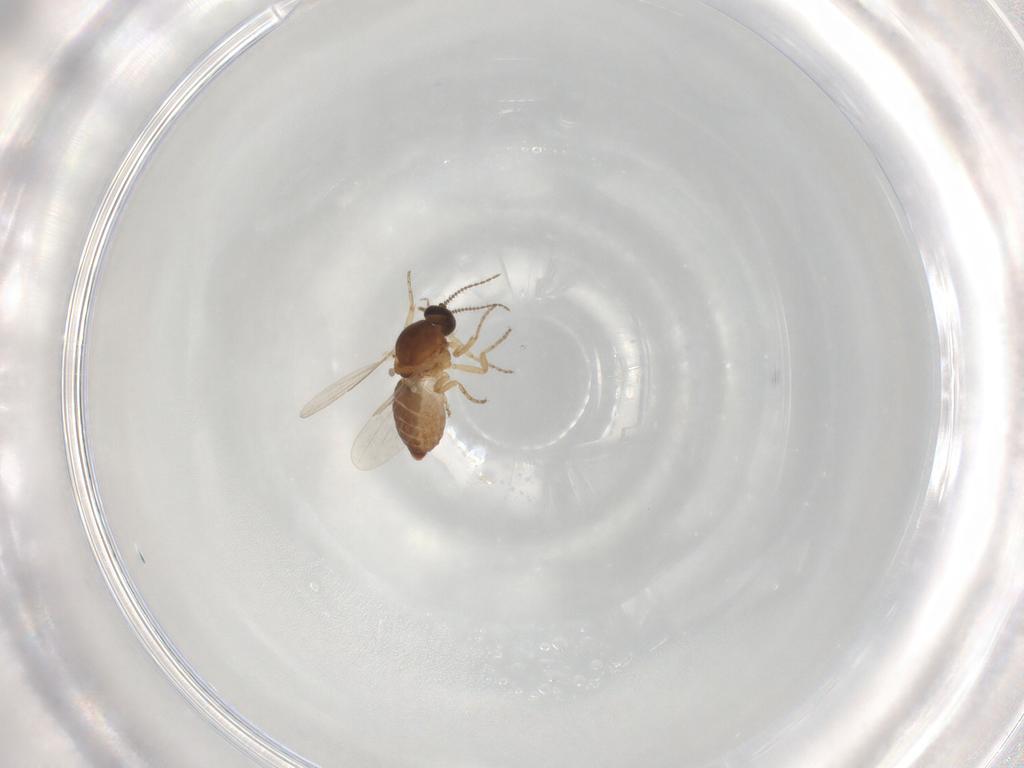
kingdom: Animalia
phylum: Arthropoda
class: Insecta
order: Diptera
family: Ceratopogonidae
